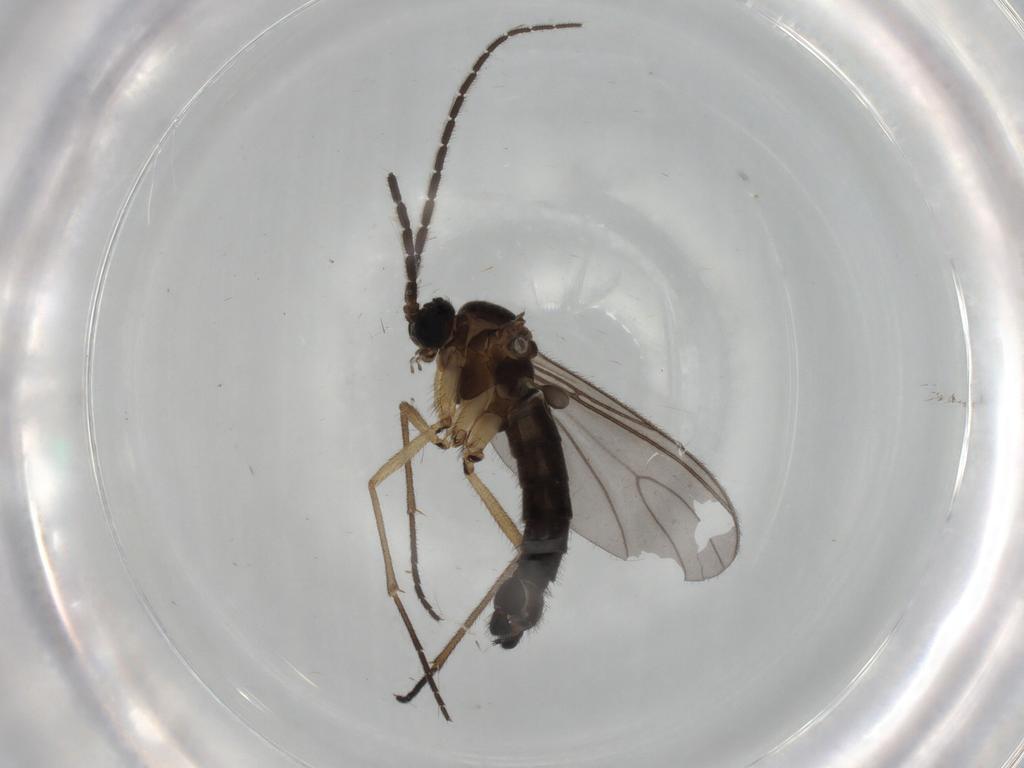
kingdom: Animalia
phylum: Arthropoda
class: Insecta
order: Diptera
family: Sciaridae
